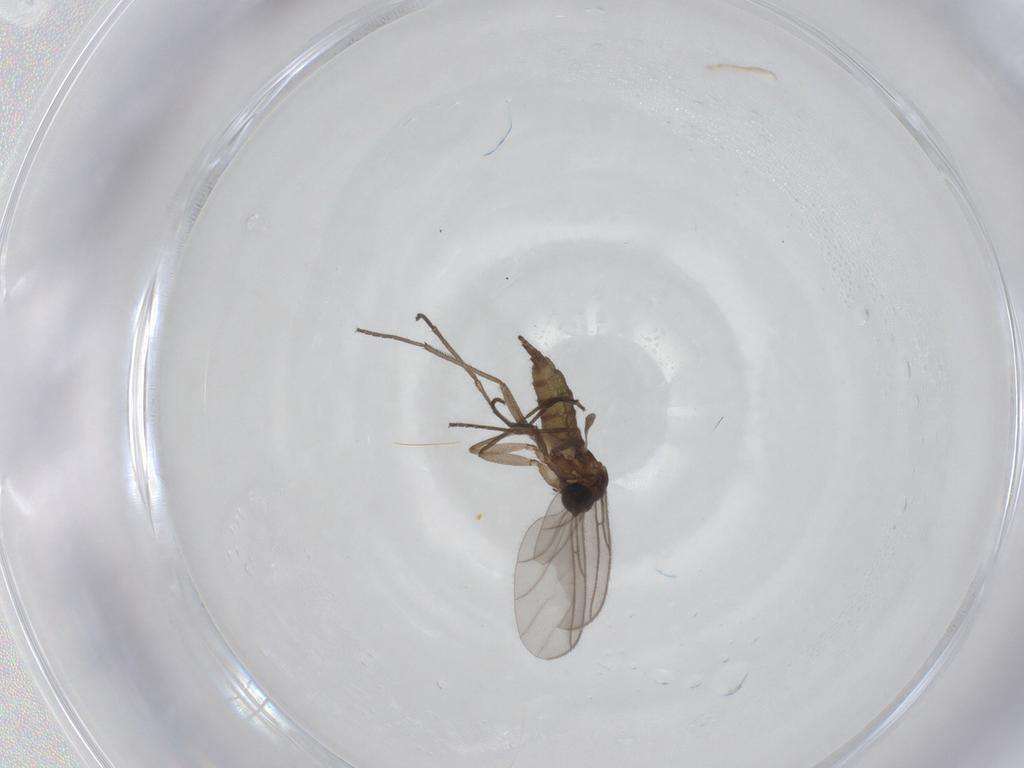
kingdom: Animalia
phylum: Arthropoda
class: Insecta
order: Diptera
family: Sciaridae
